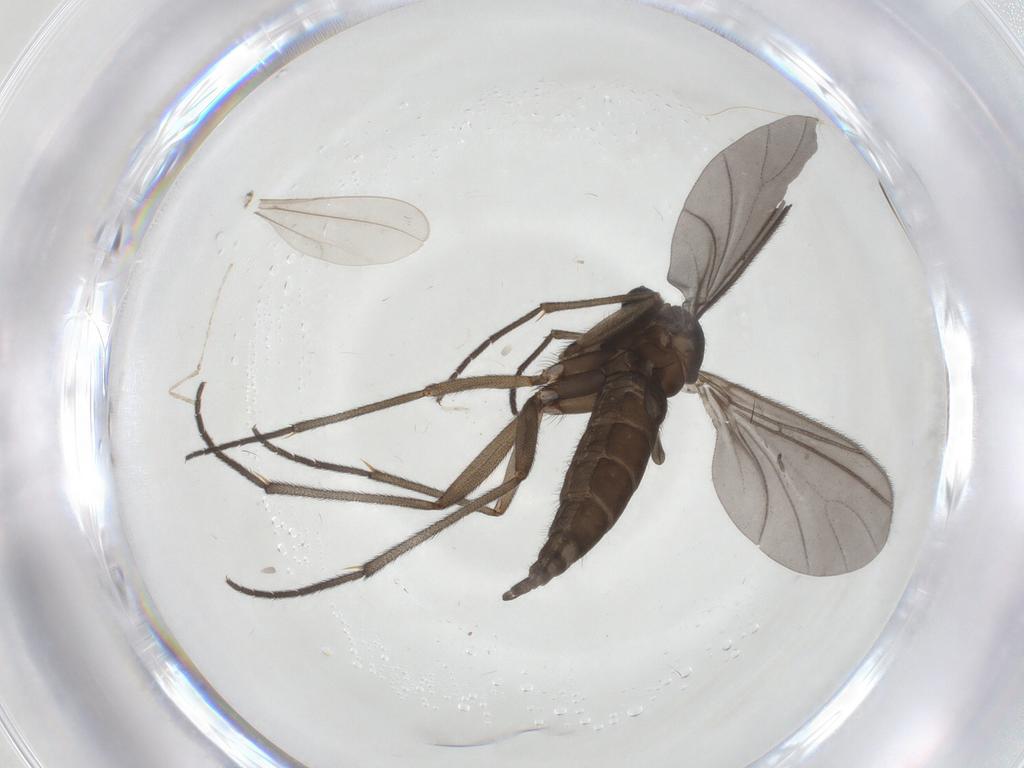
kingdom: Animalia
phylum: Arthropoda
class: Insecta
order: Diptera
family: Sciaridae
